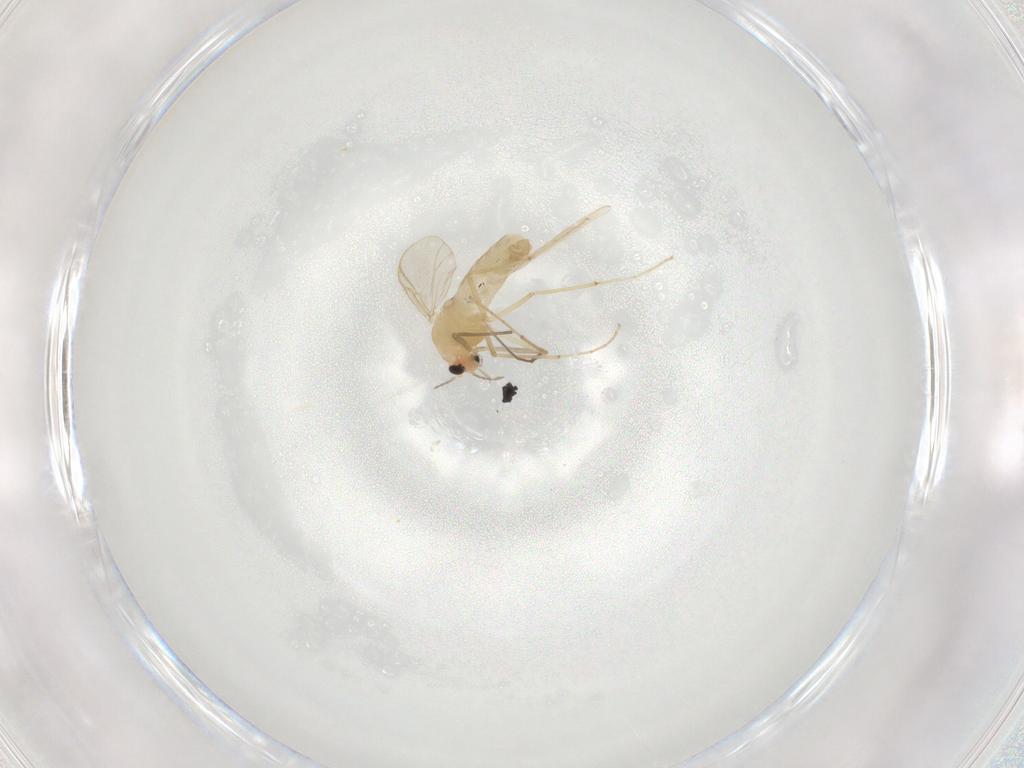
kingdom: Animalia
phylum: Arthropoda
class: Insecta
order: Diptera
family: Chironomidae
